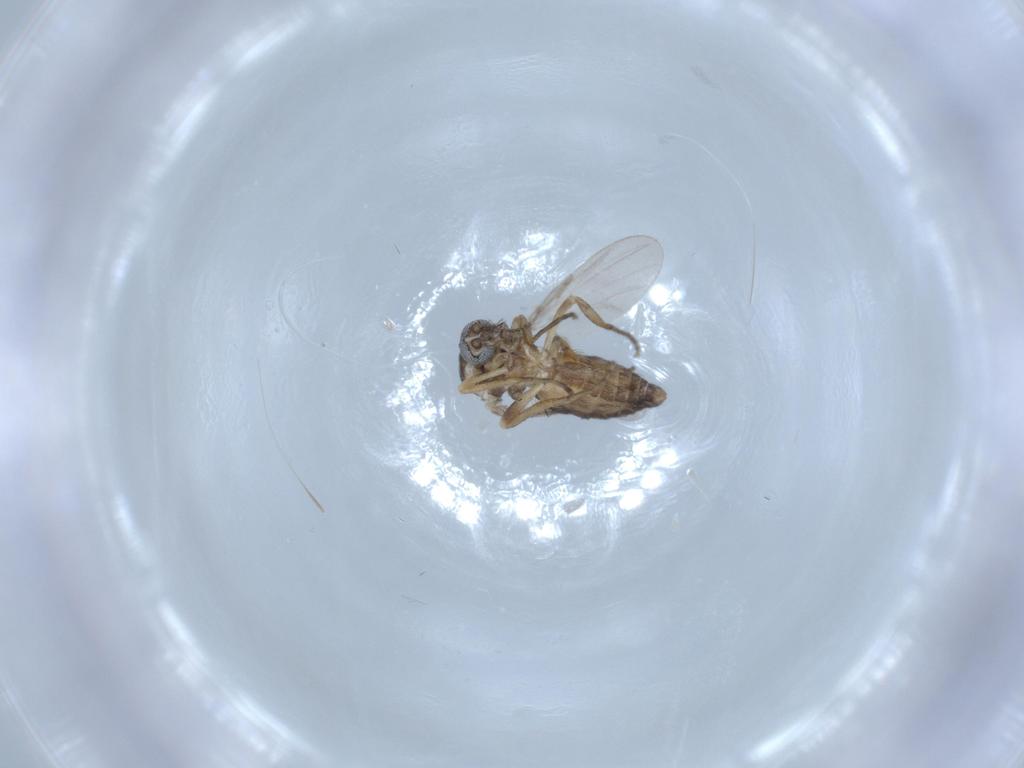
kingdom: Animalia
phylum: Arthropoda
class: Insecta
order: Diptera
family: Ceratopogonidae
